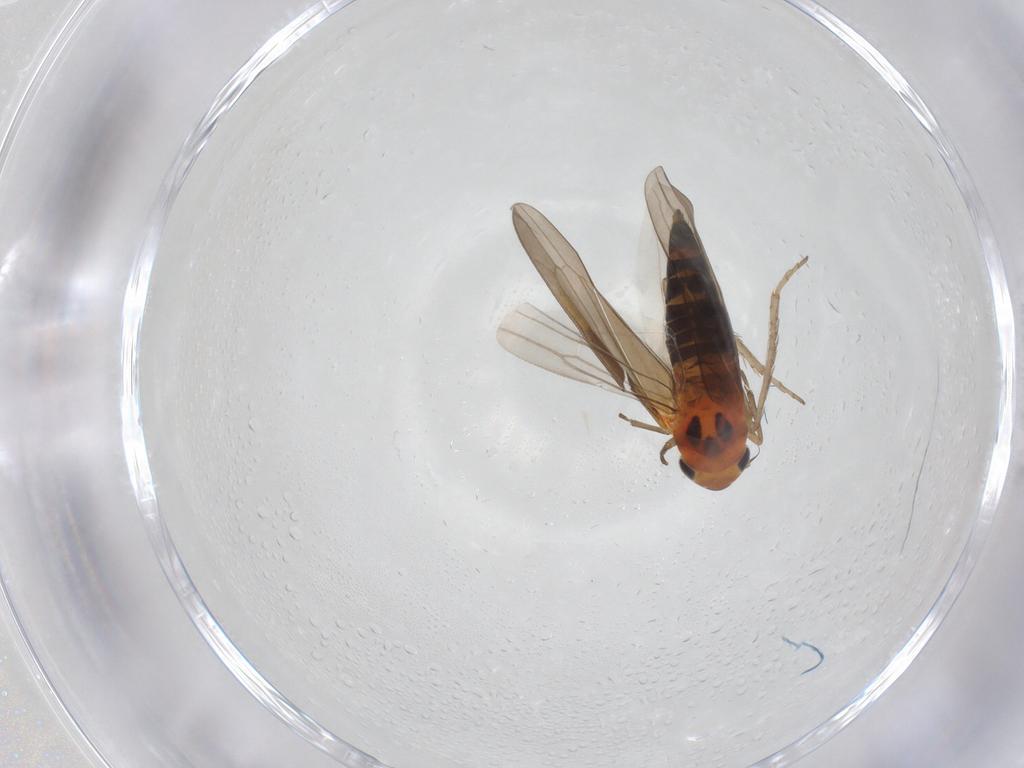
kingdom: Animalia
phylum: Arthropoda
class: Insecta
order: Hemiptera
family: Cicadellidae
